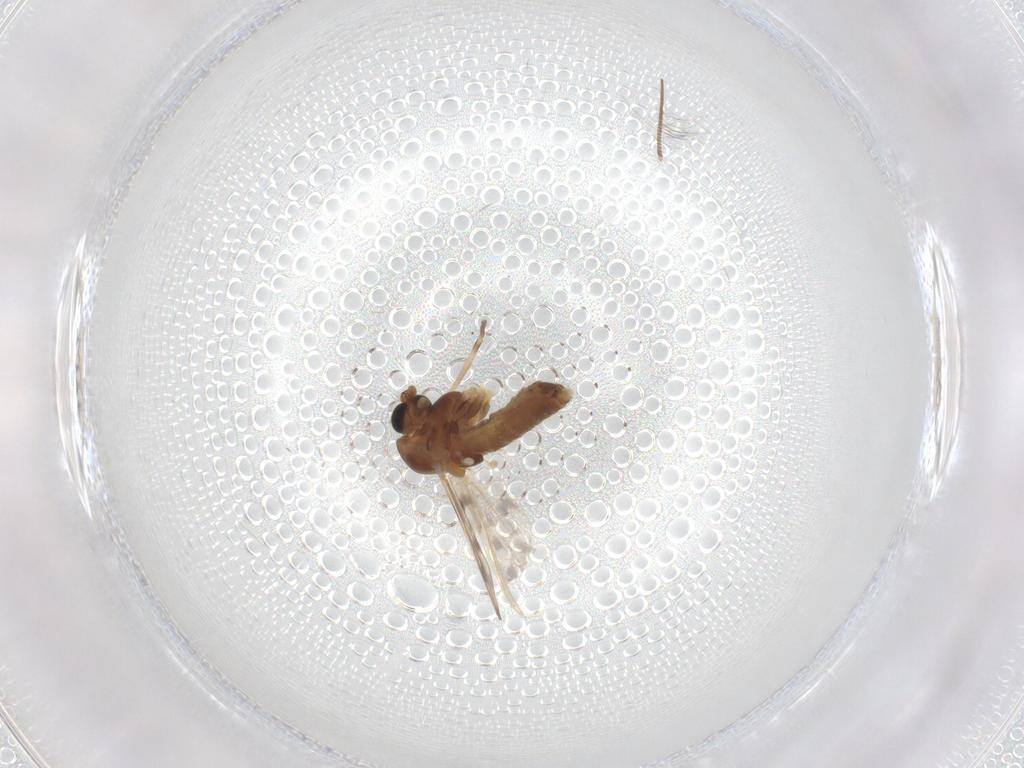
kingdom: Animalia
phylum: Arthropoda
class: Insecta
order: Diptera
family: Chironomidae
